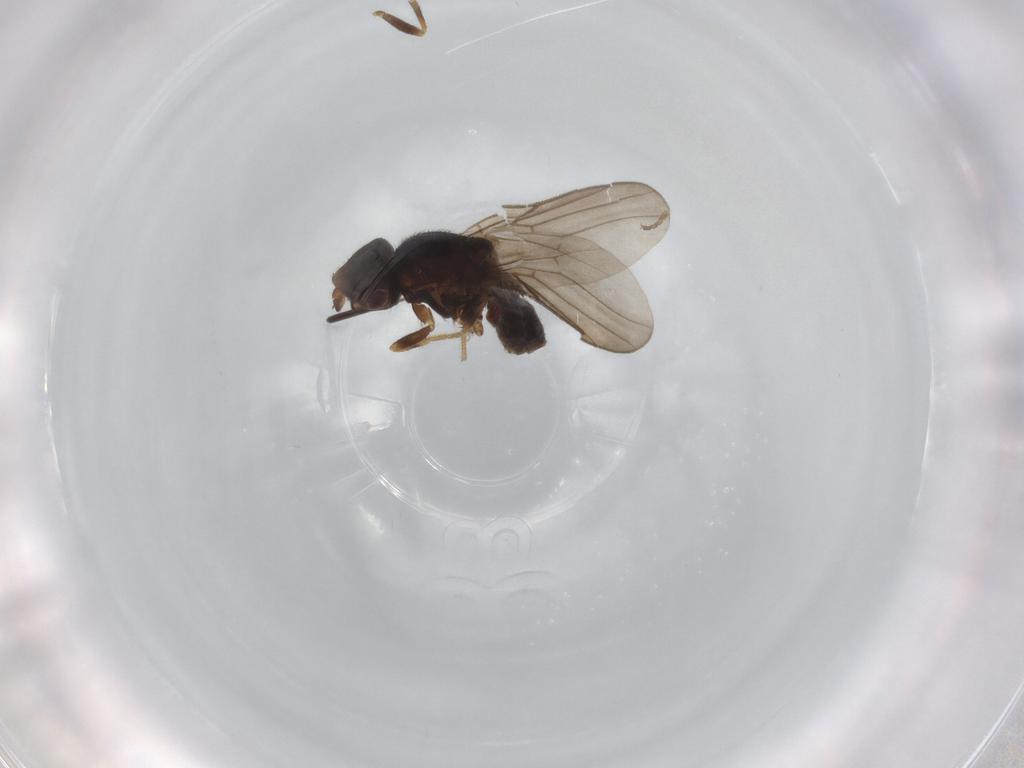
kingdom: Animalia
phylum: Arthropoda
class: Insecta
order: Diptera
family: Chloropidae
